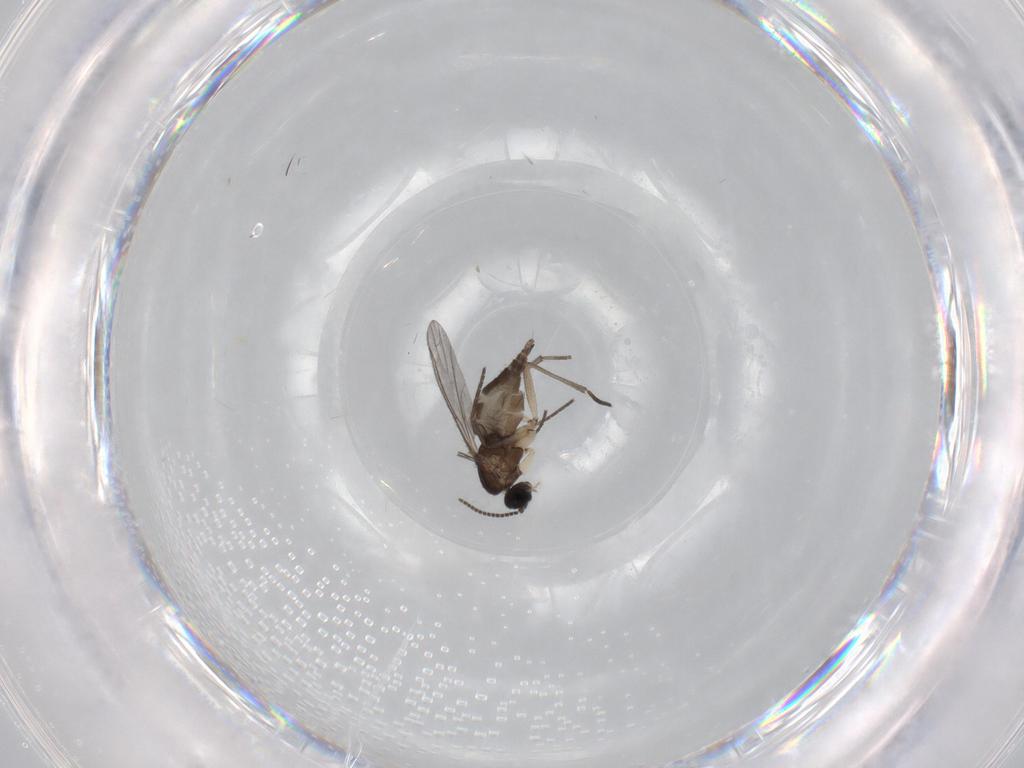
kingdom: Animalia
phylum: Arthropoda
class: Insecta
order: Diptera
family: Sciaridae
